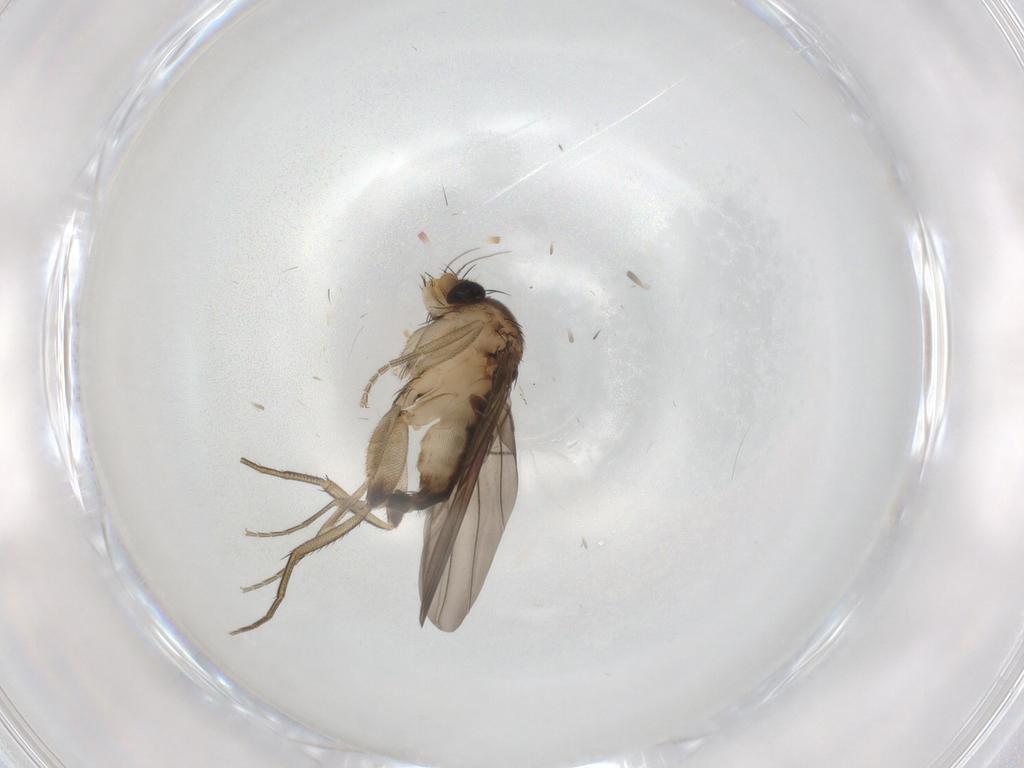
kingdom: Animalia
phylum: Arthropoda
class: Insecta
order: Diptera
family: Phoridae
